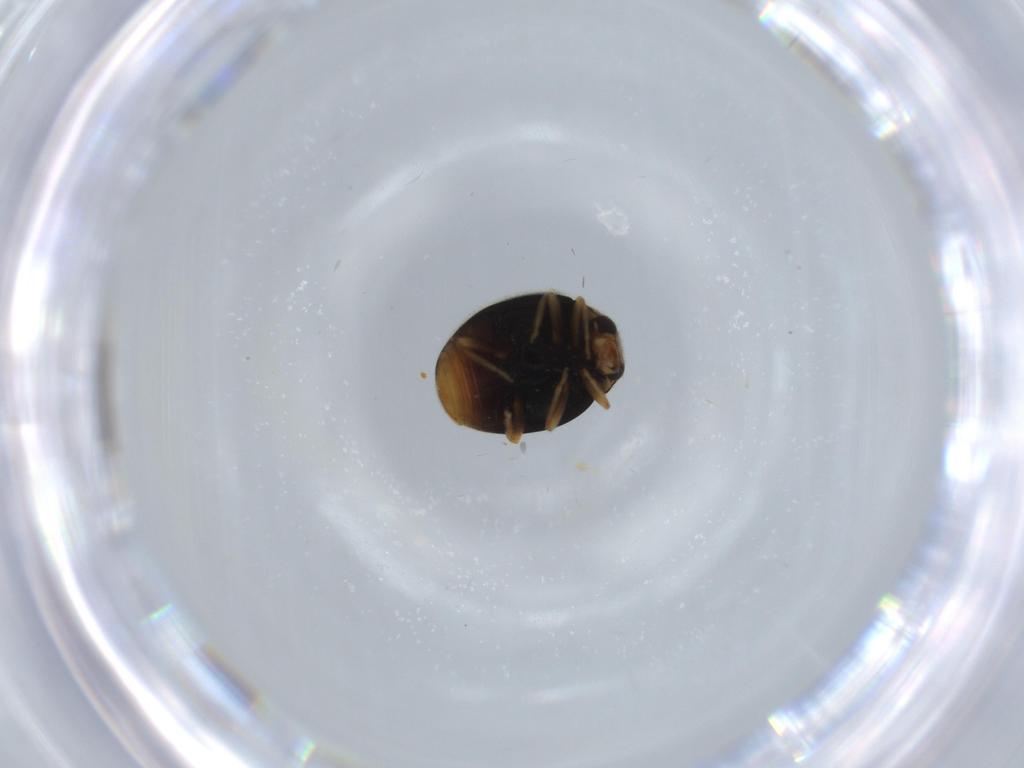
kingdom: Animalia
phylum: Arthropoda
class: Insecta
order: Coleoptera
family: Coccinellidae
